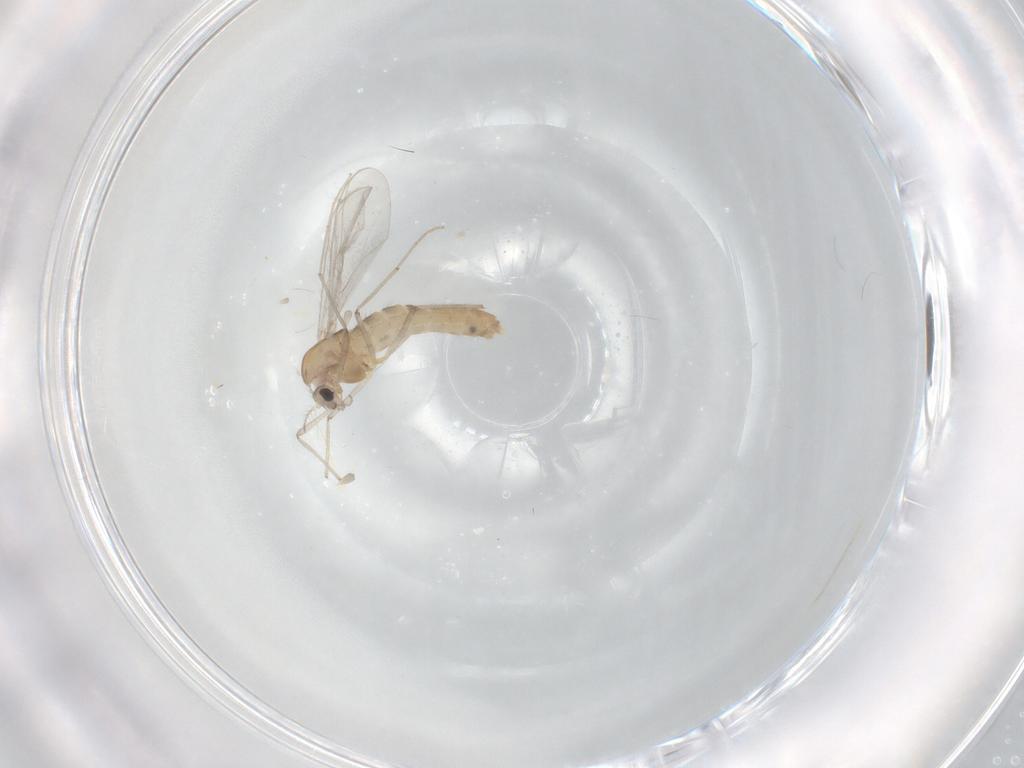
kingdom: Animalia
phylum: Arthropoda
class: Insecta
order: Diptera
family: Chironomidae
